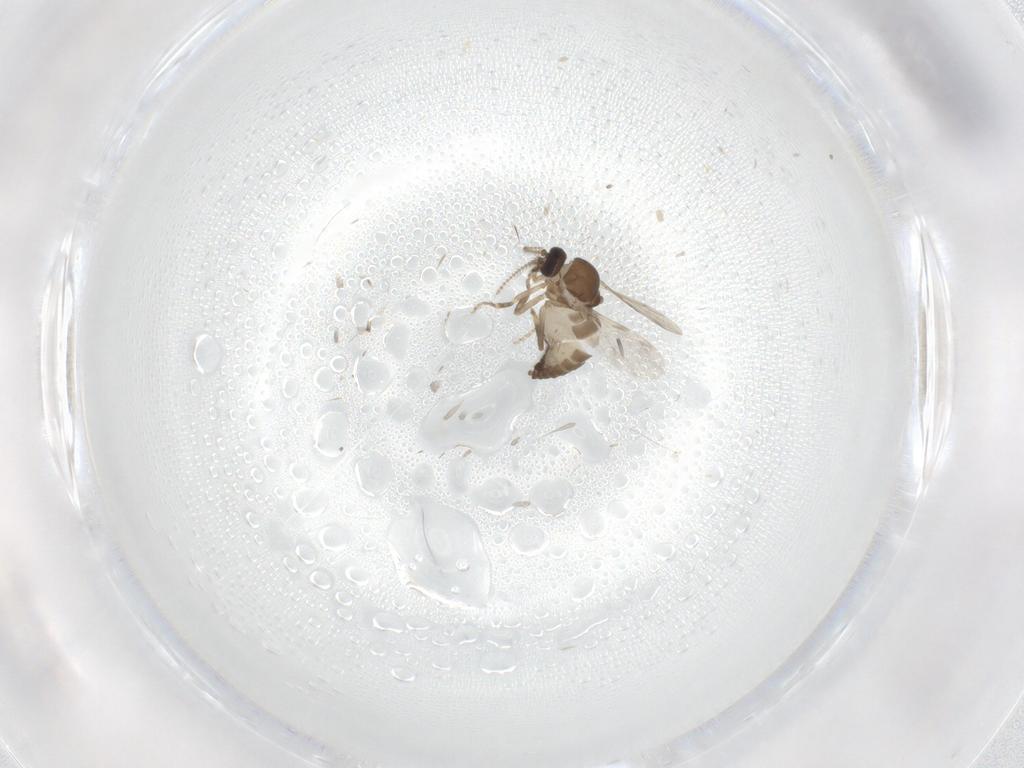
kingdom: Animalia
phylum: Arthropoda
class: Insecta
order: Diptera
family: Ceratopogonidae
